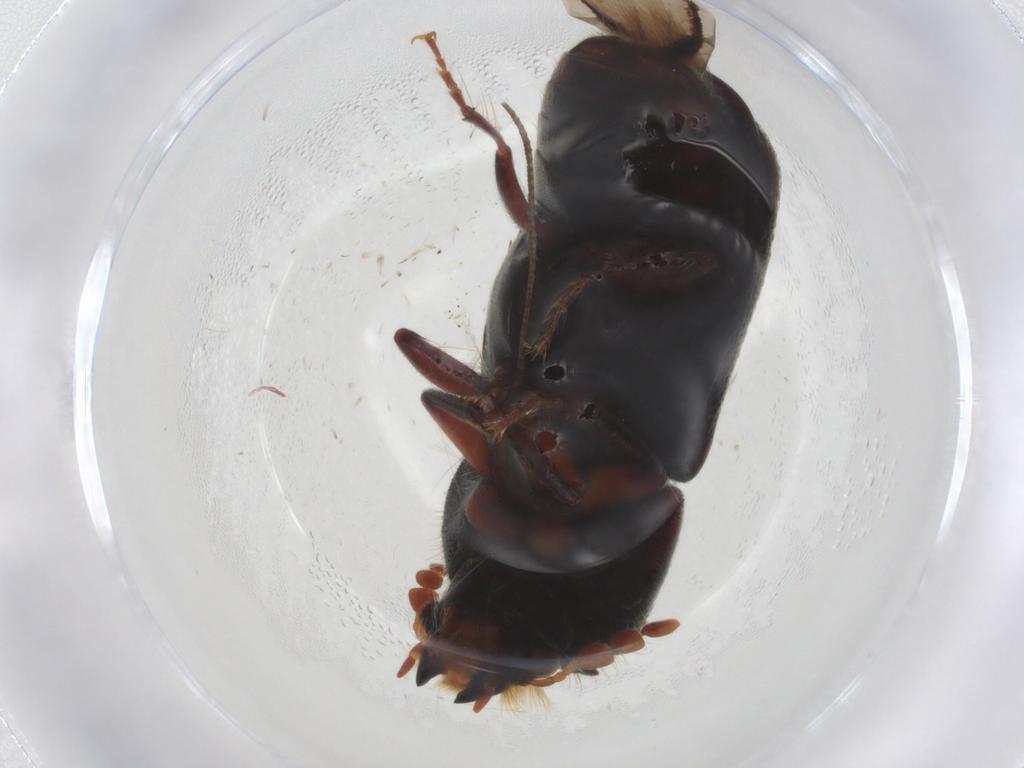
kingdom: Animalia
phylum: Arthropoda
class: Insecta
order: Coleoptera
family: Bostrichidae
